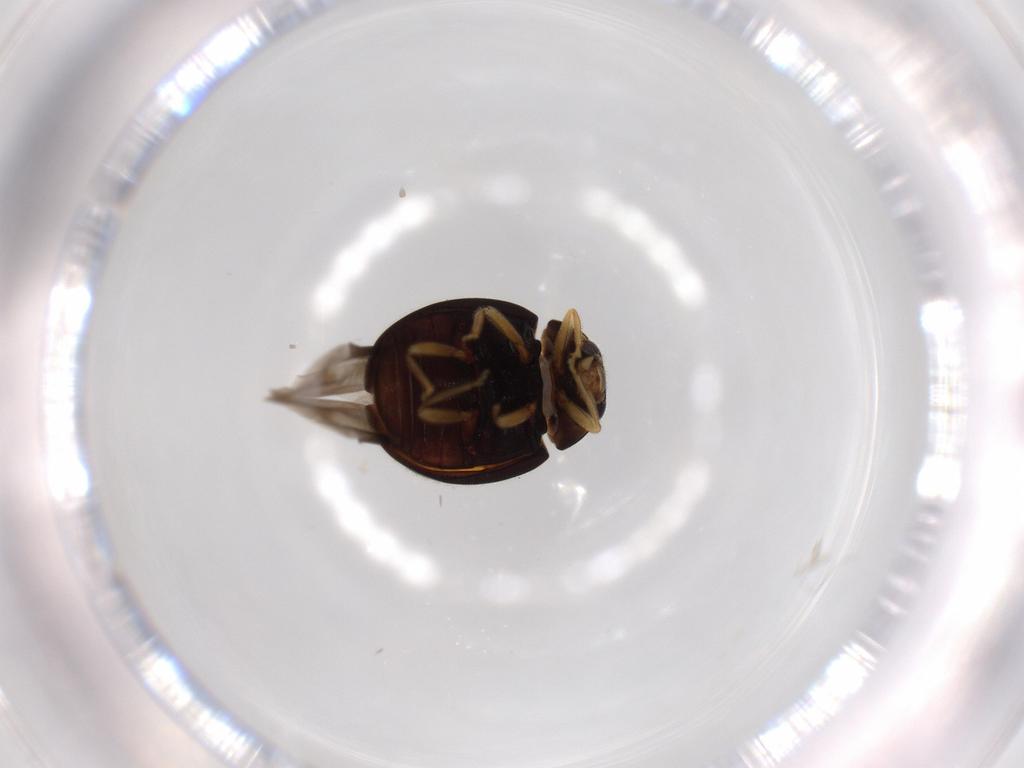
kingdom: Animalia
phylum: Arthropoda
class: Insecta
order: Coleoptera
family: Coccinellidae
